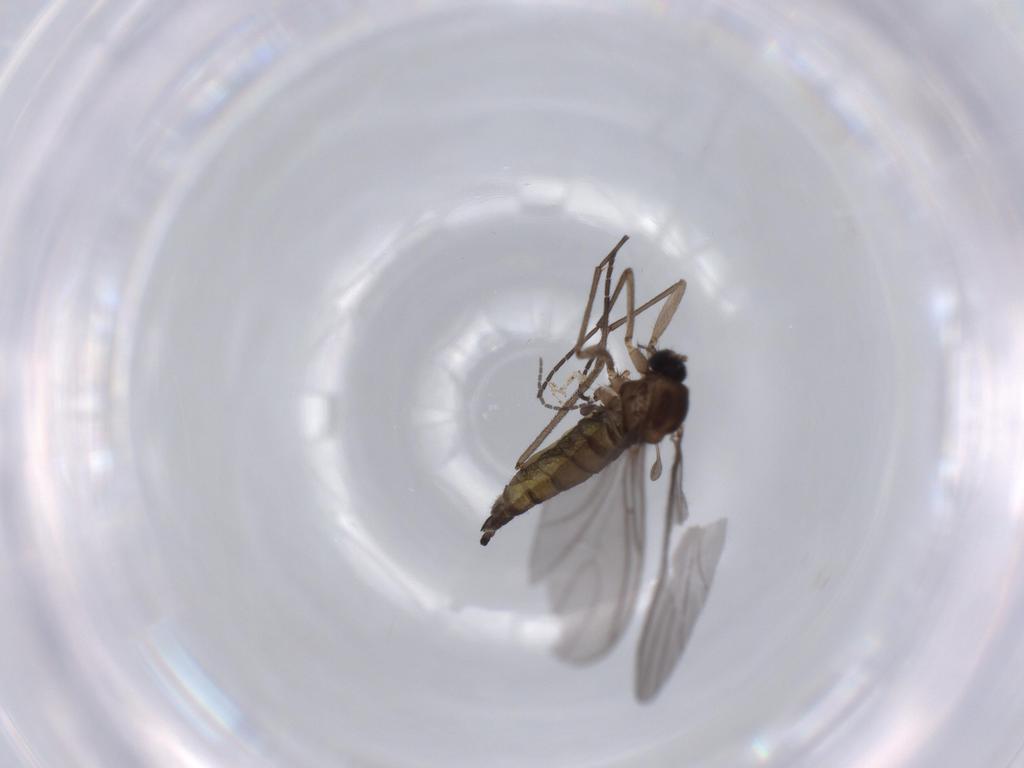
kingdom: Animalia
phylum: Arthropoda
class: Insecta
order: Diptera
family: Sciaridae
